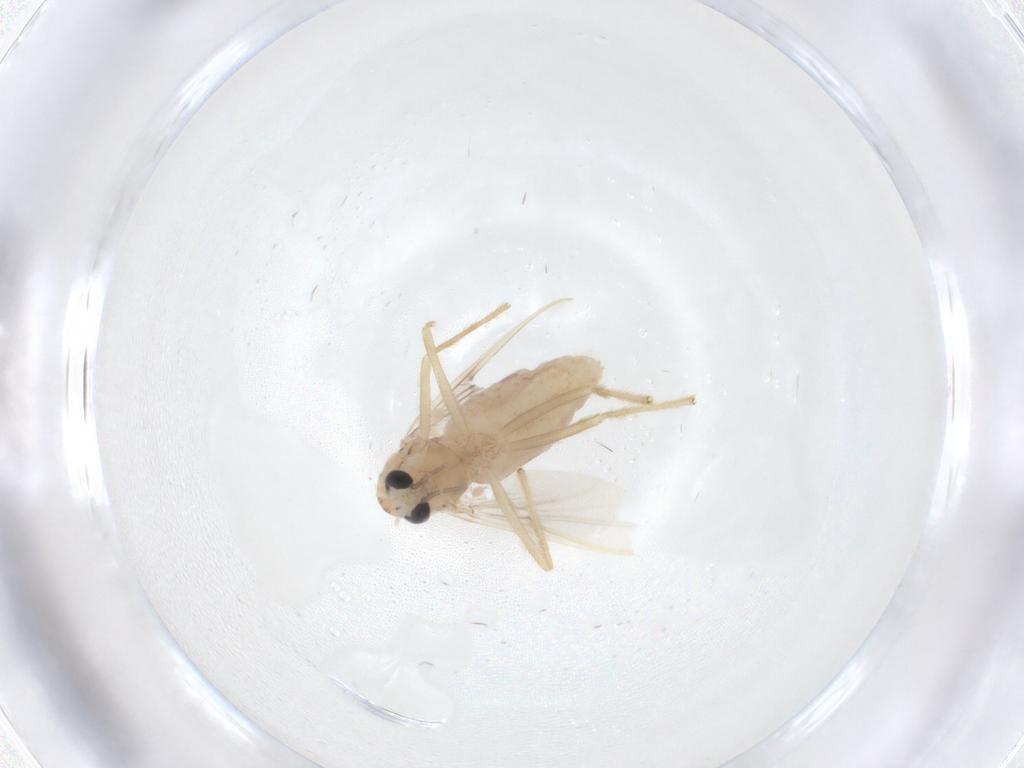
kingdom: Animalia
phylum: Arthropoda
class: Insecta
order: Diptera
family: Chironomidae
